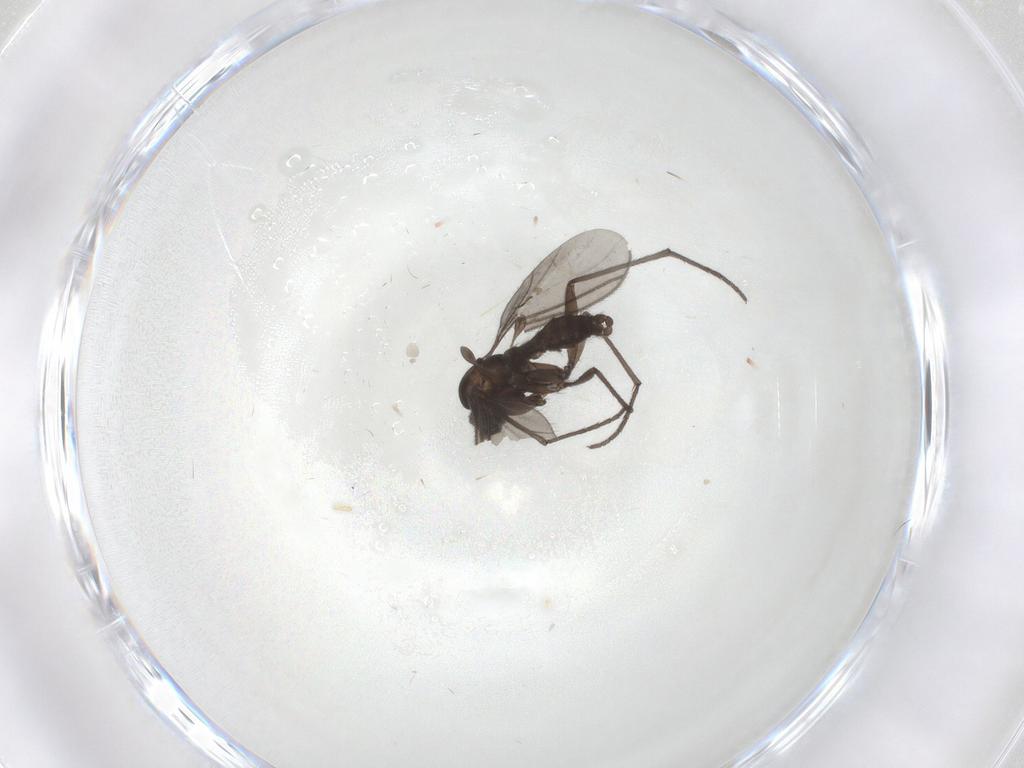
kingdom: Animalia
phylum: Arthropoda
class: Insecta
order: Diptera
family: Sciaridae
